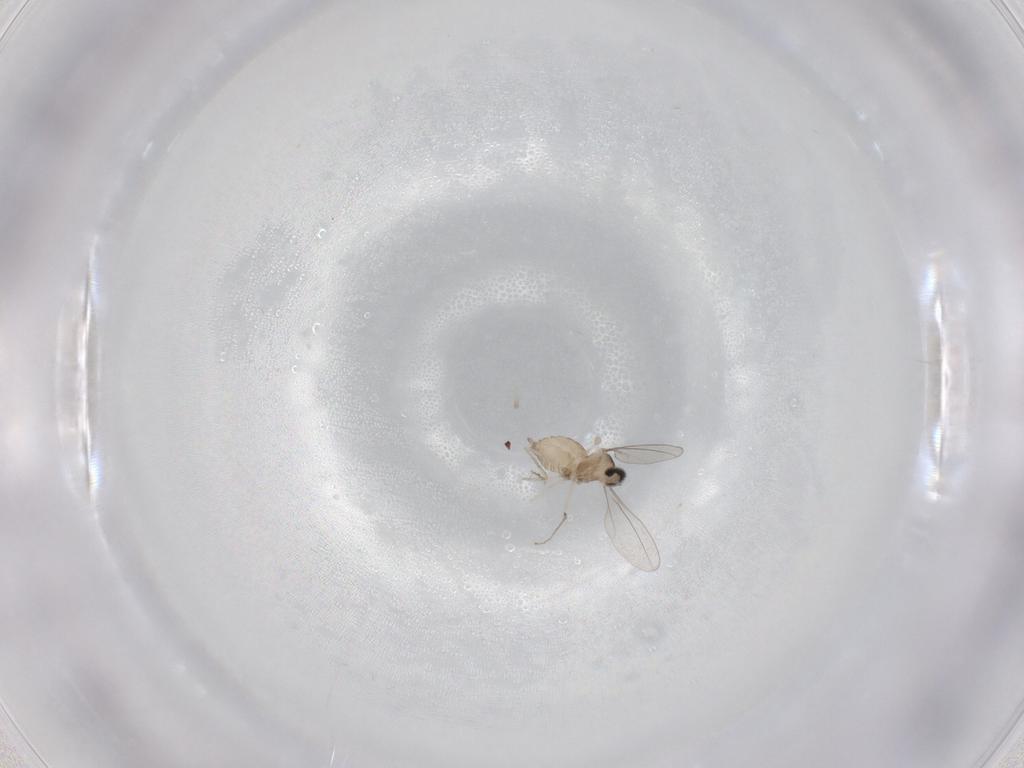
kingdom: Animalia
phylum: Arthropoda
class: Insecta
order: Diptera
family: Cecidomyiidae
